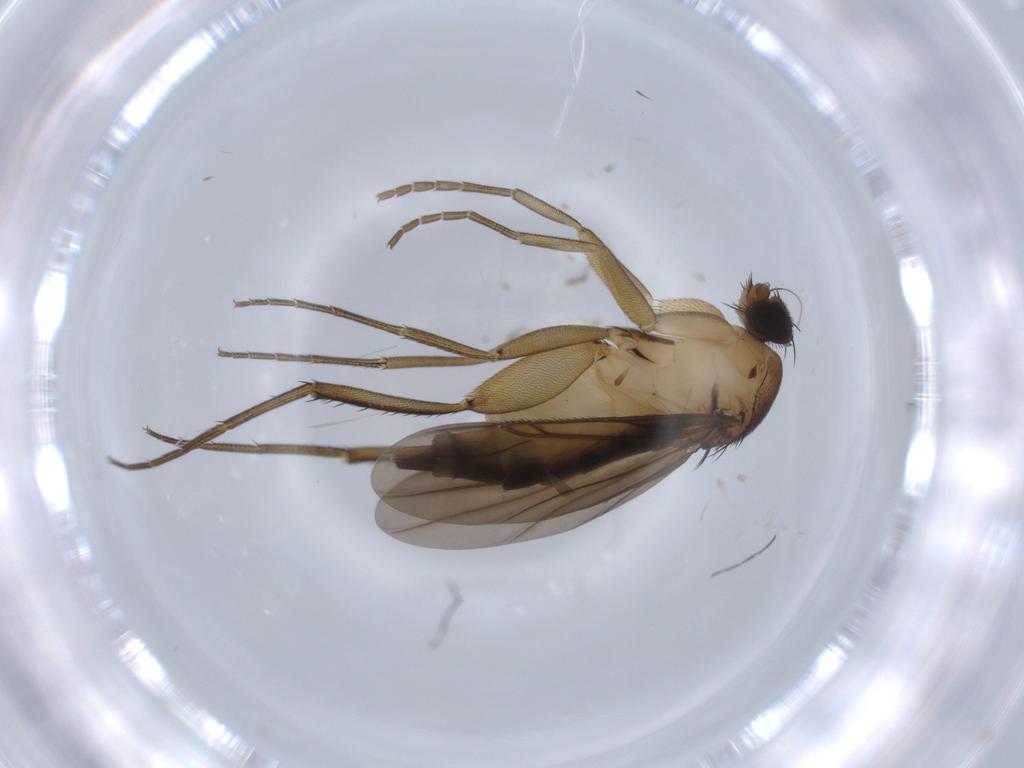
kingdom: Animalia
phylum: Arthropoda
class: Insecta
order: Diptera
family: Phoridae
